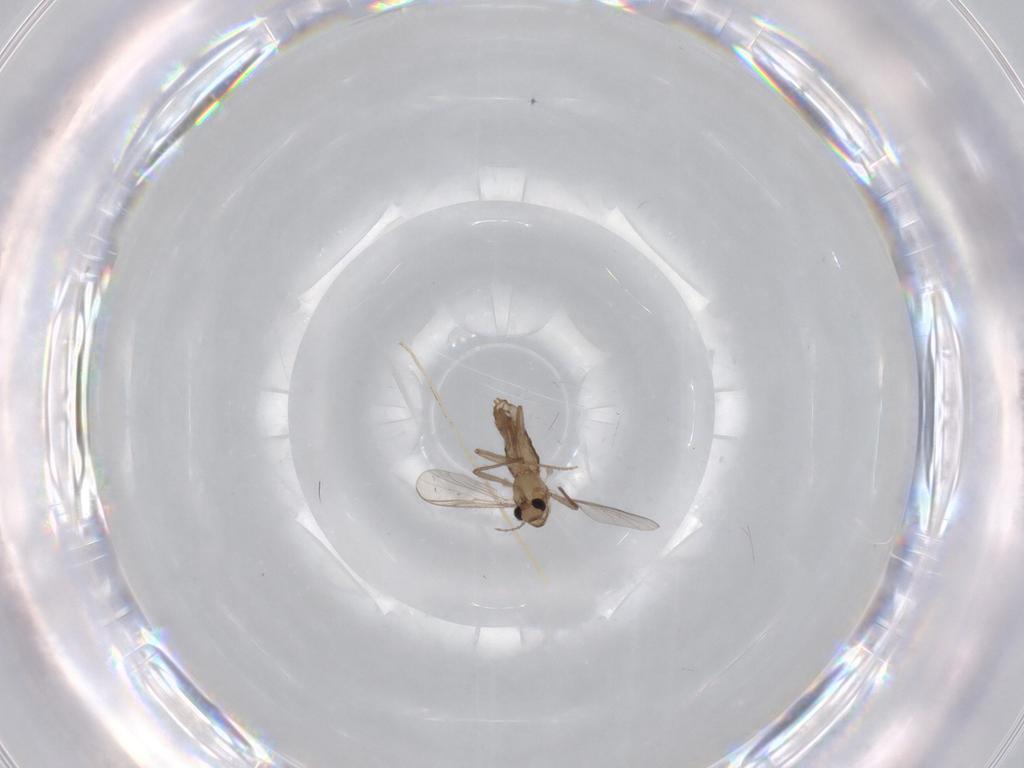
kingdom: Animalia
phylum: Arthropoda
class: Insecta
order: Diptera
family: Chironomidae
